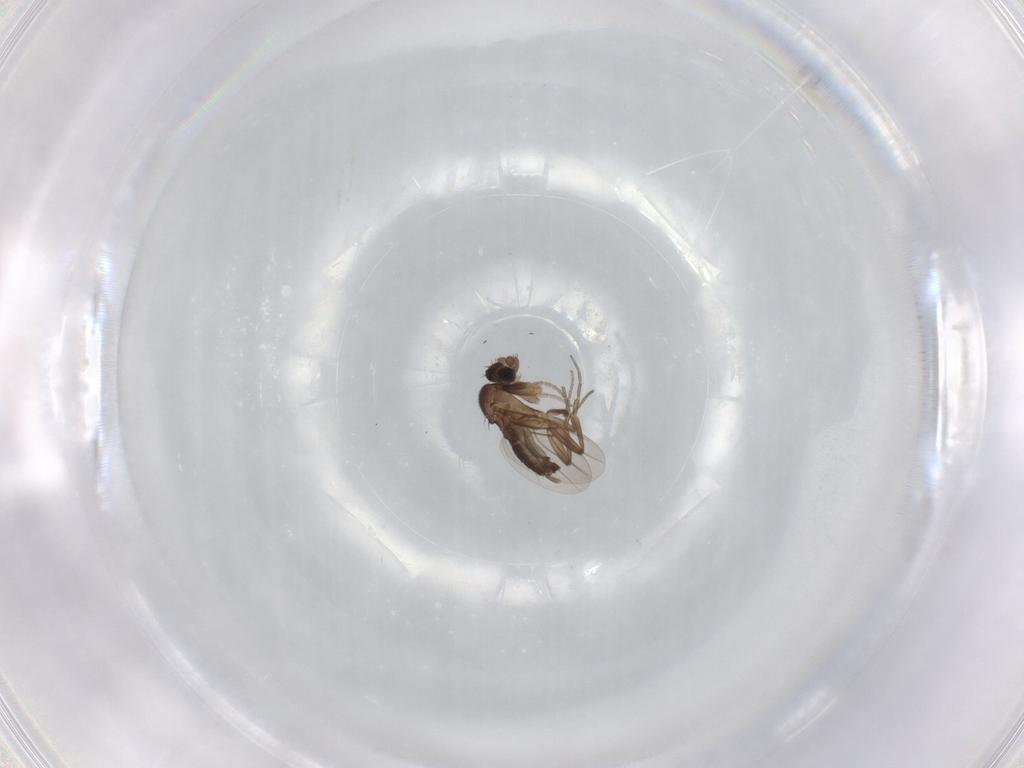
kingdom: Animalia
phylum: Arthropoda
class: Insecta
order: Diptera
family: Phoridae
